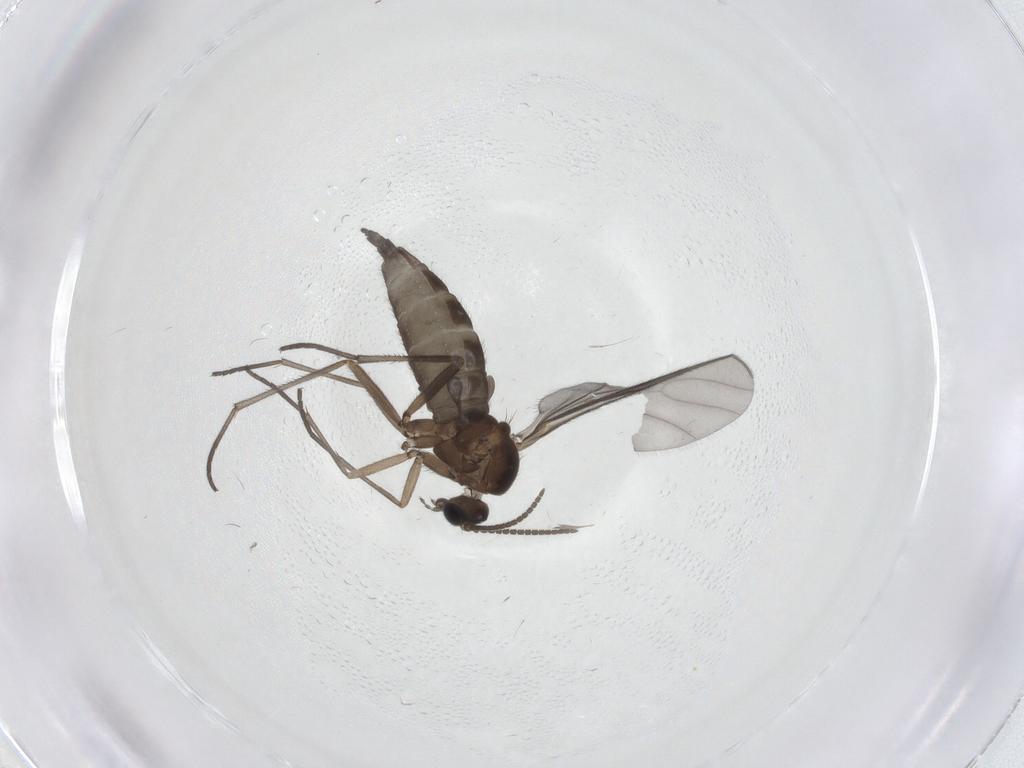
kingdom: Animalia
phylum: Arthropoda
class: Insecta
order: Diptera
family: Sciaridae
